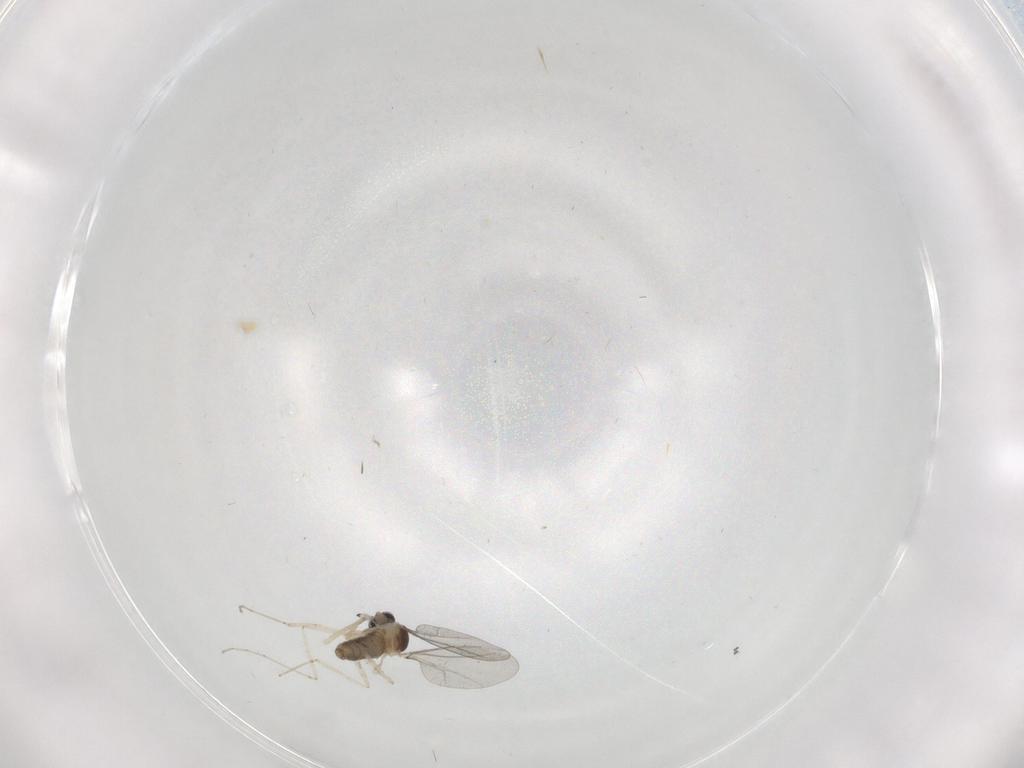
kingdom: Animalia
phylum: Arthropoda
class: Insecta
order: Diptera
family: Cecidomyiidae
